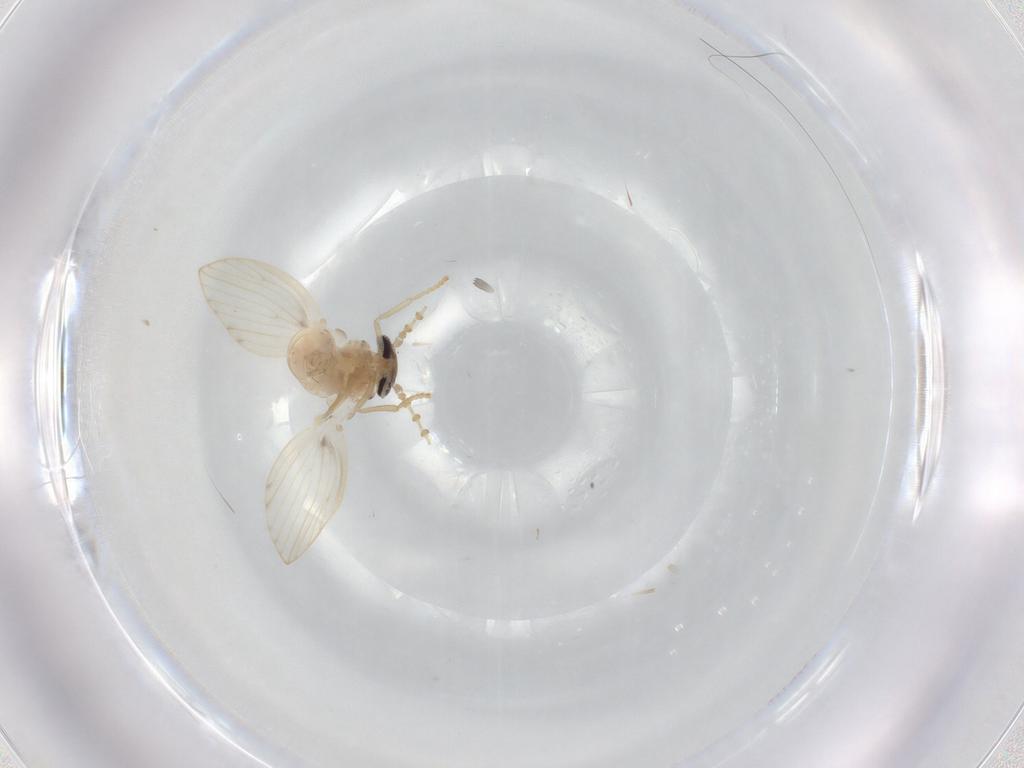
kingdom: Animalia
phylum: Arthropoda
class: Insecta
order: Diptera
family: Psychodidae
